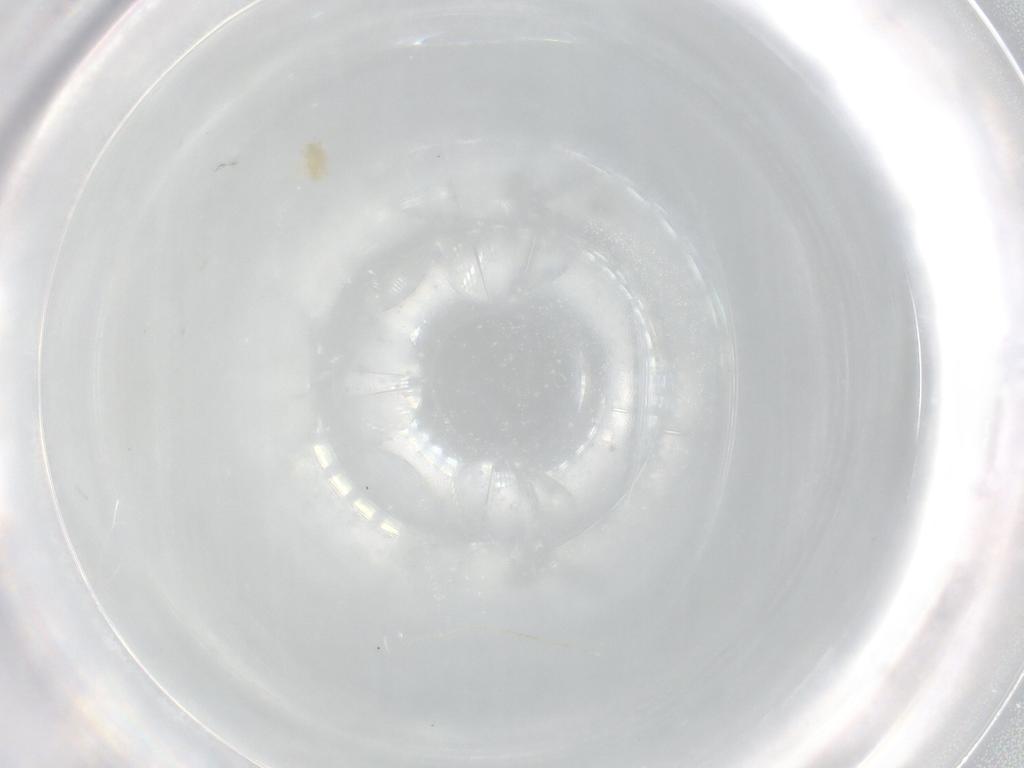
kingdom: Animalia
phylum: Arthropoda
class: Arachnida
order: Trombidiformes
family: Eupodidae
